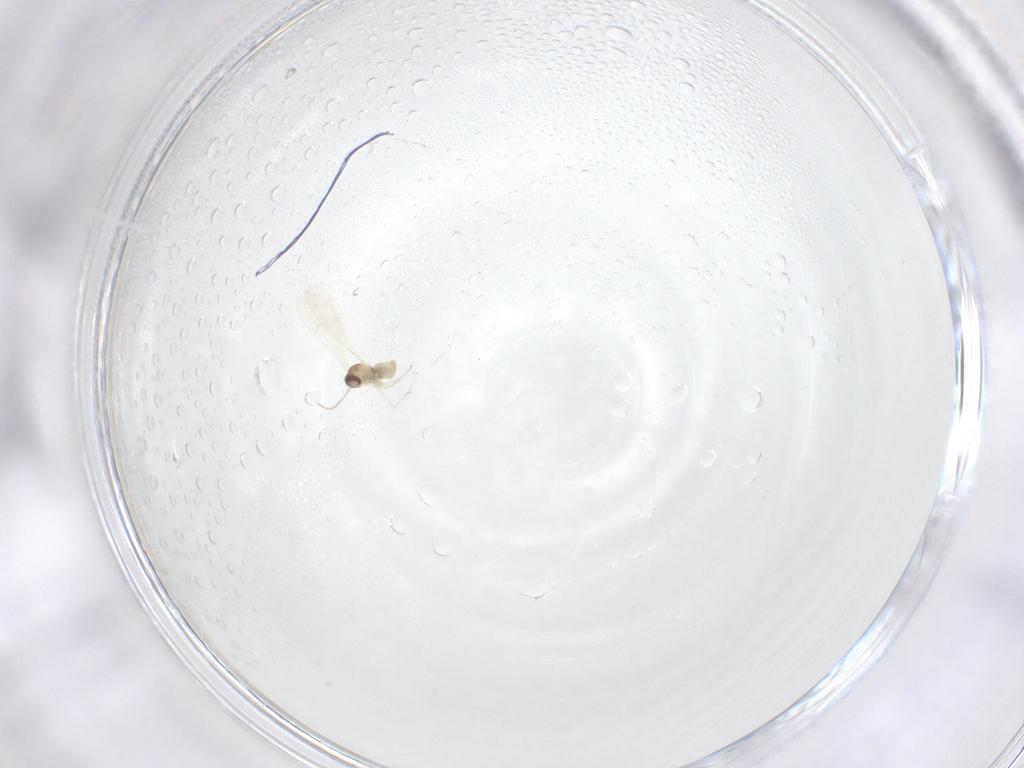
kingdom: Animalia
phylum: Arthropoda
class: Insecta
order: Diptera
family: Cecidomyiidae
